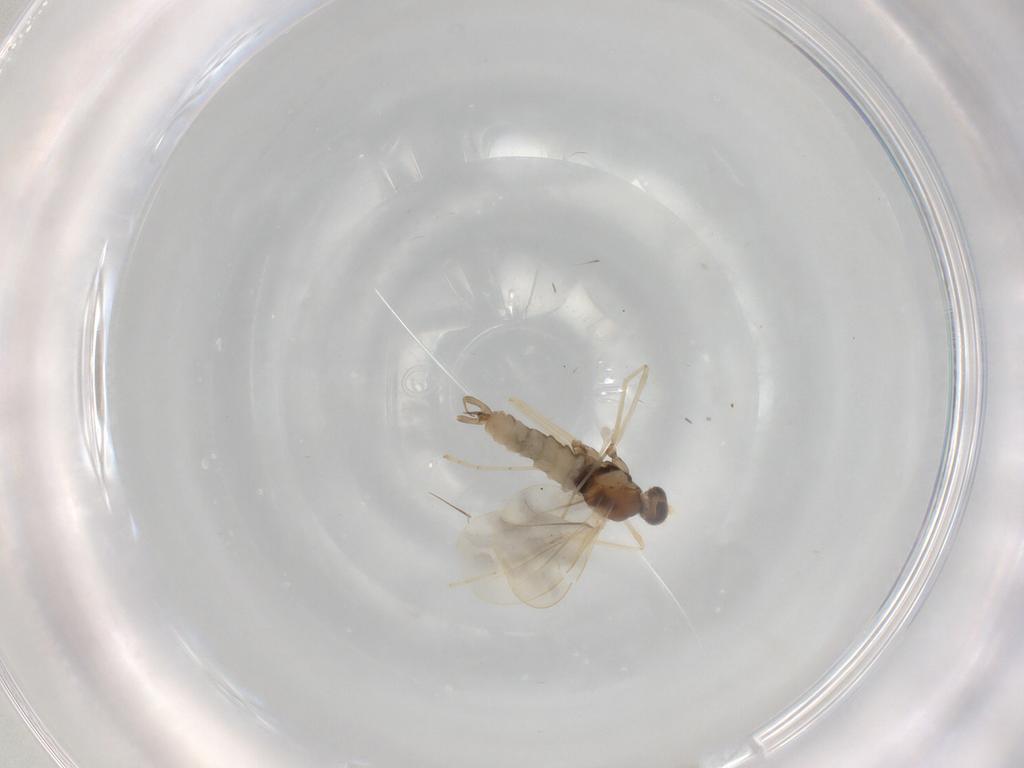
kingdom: Animalia
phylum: Arthropoda
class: Insecta
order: Diptera
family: Cecidomyiidae
